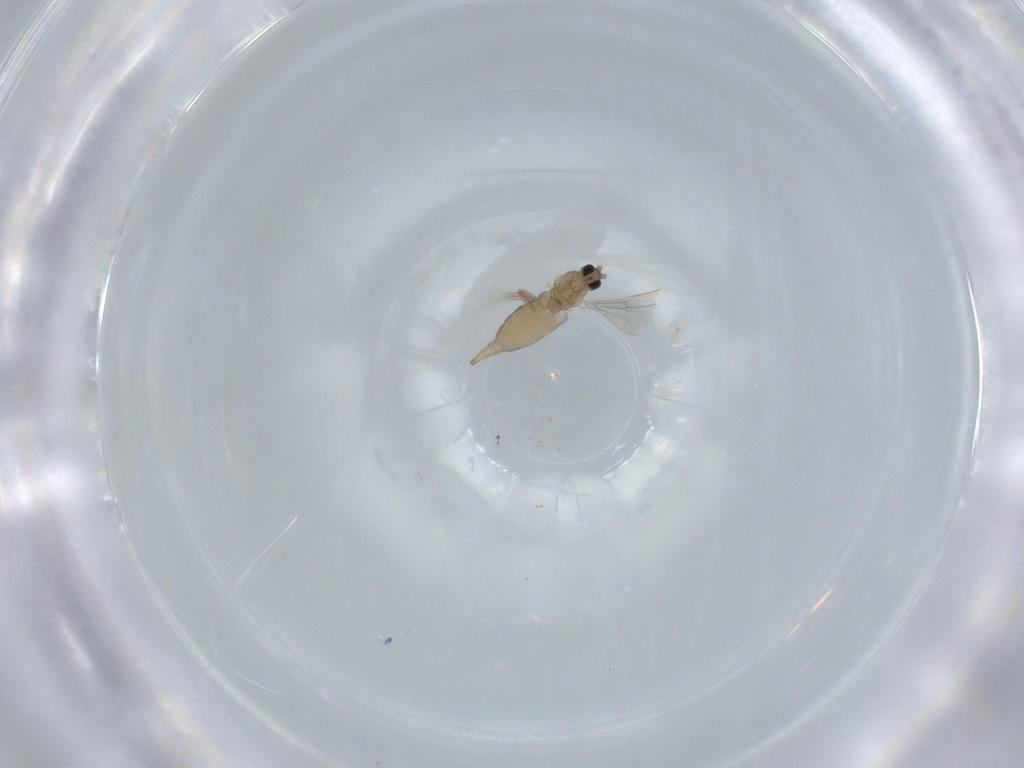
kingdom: Animalia
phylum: Arthropoda
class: Insecta
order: Diptera
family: Cecidomyiidae
